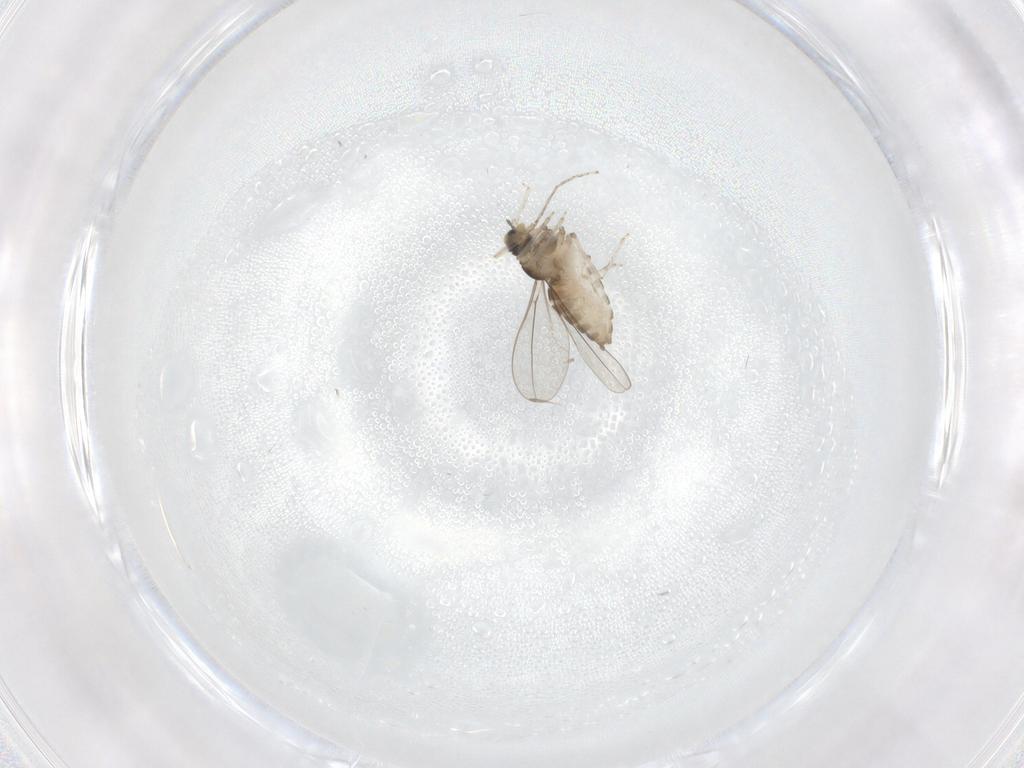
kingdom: Animalia
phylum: Arthropoda
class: Insecta
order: Diptera
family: Cecidomyiidae
